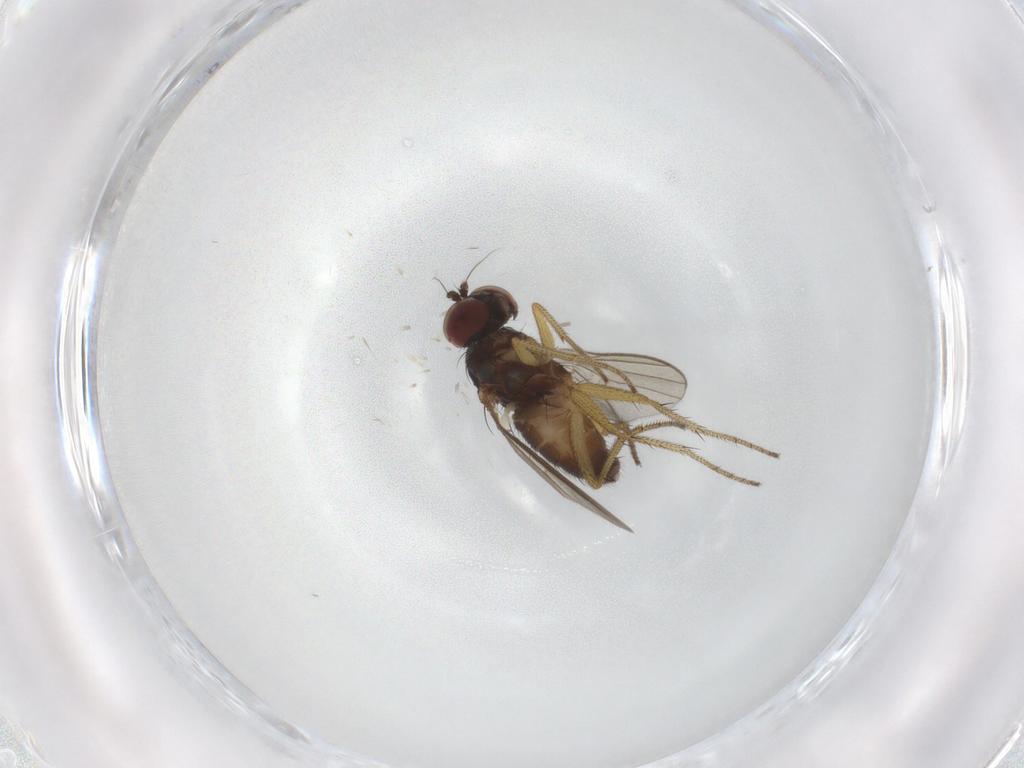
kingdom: Animalia
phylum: Arthropoda
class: Insecta
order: Diptera
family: Dolichopodidae
